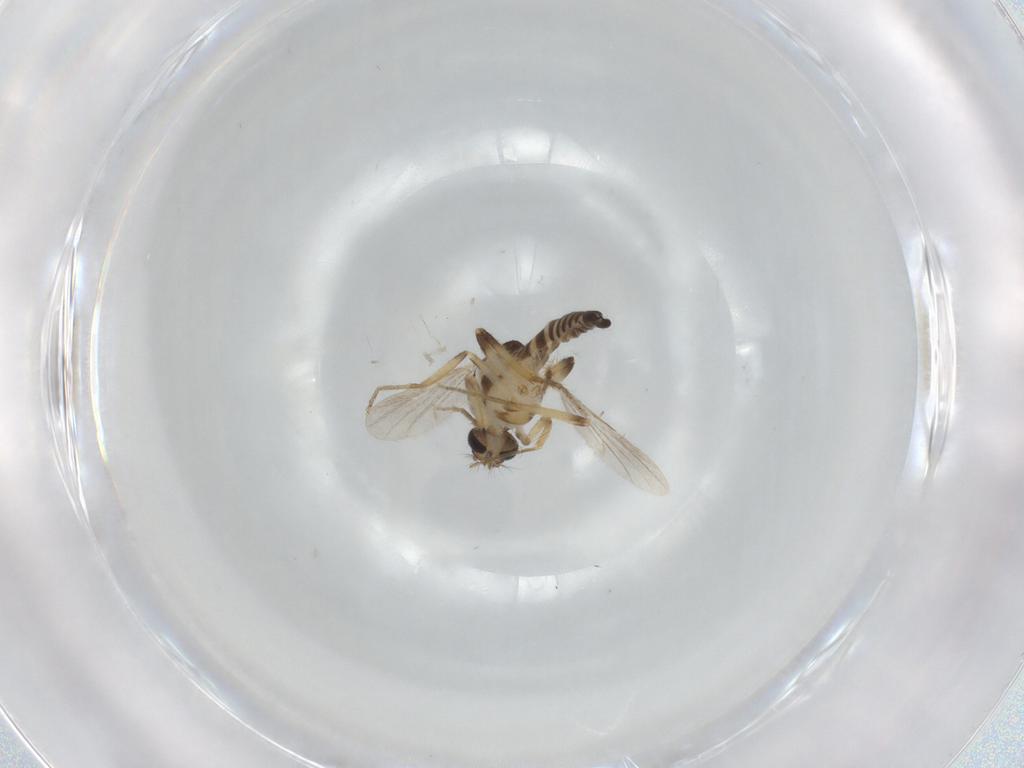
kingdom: Animalia
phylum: Arthropoda
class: Insecta
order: Diptera
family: Ceratopogonidae
